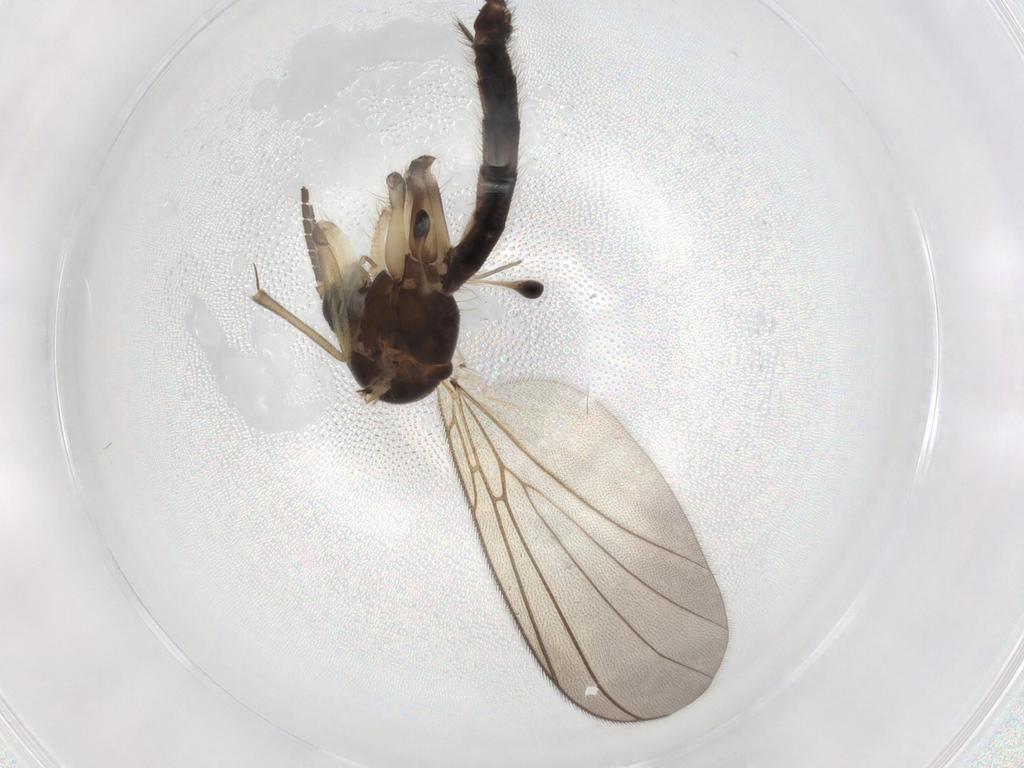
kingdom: Animalia
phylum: Arthropoda
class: Insecta
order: Diptera
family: Mycetophilidae
